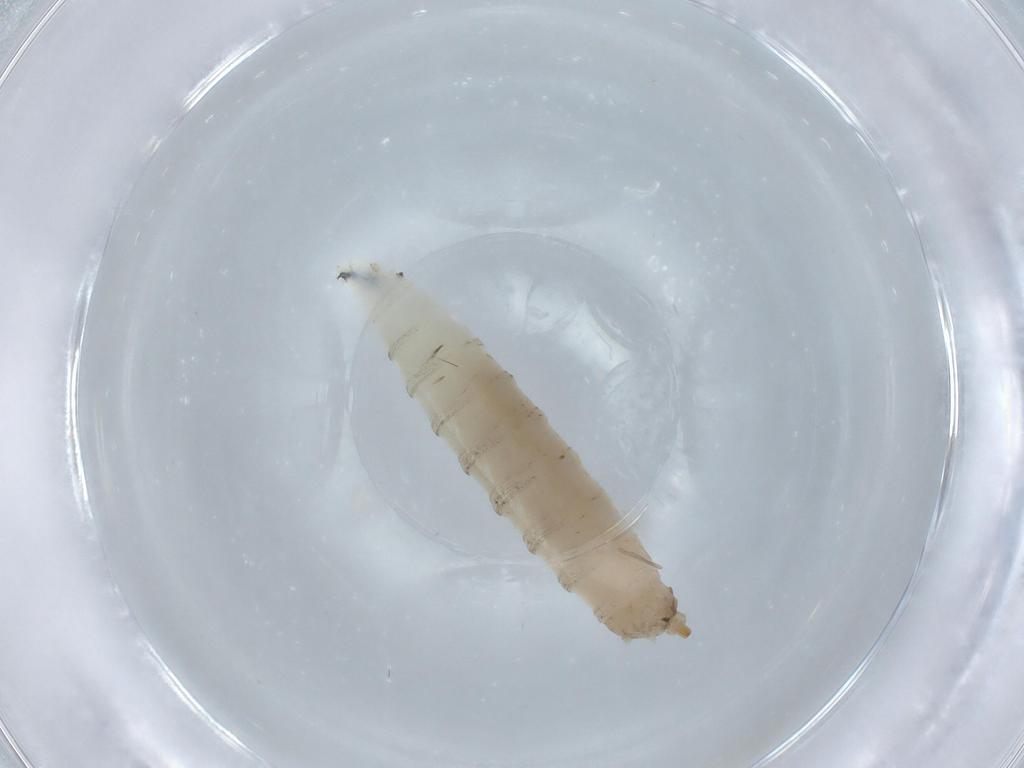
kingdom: Animalia
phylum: Arthropoda
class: Insecta
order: Diptera
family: Drosophilidae
